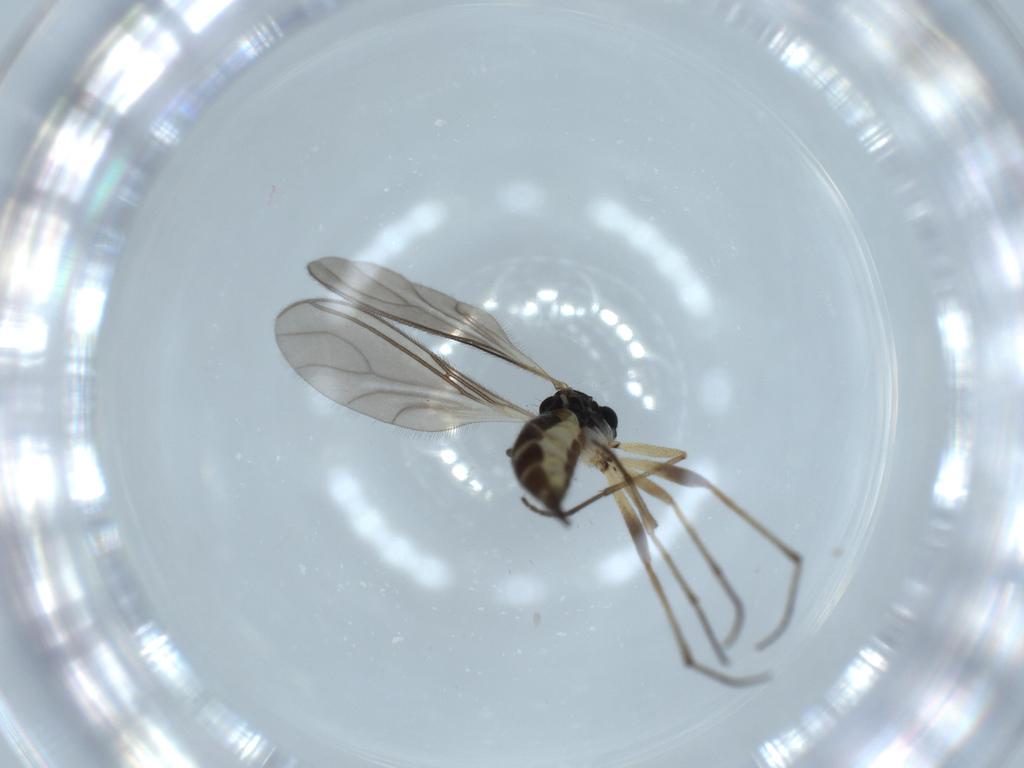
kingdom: Animalia
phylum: Arthropoda
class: Insecta
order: Diptera
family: Sciaridae
